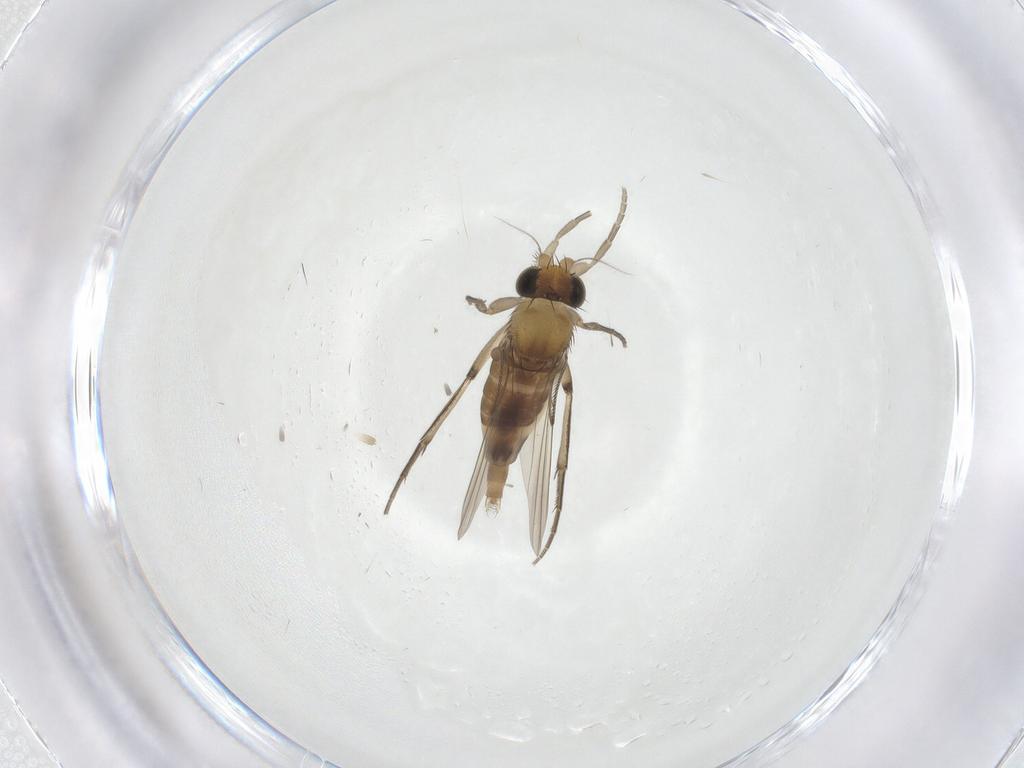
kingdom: Animalia
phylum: Arthropoda
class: Insecta
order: Diptera
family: Phoridae
